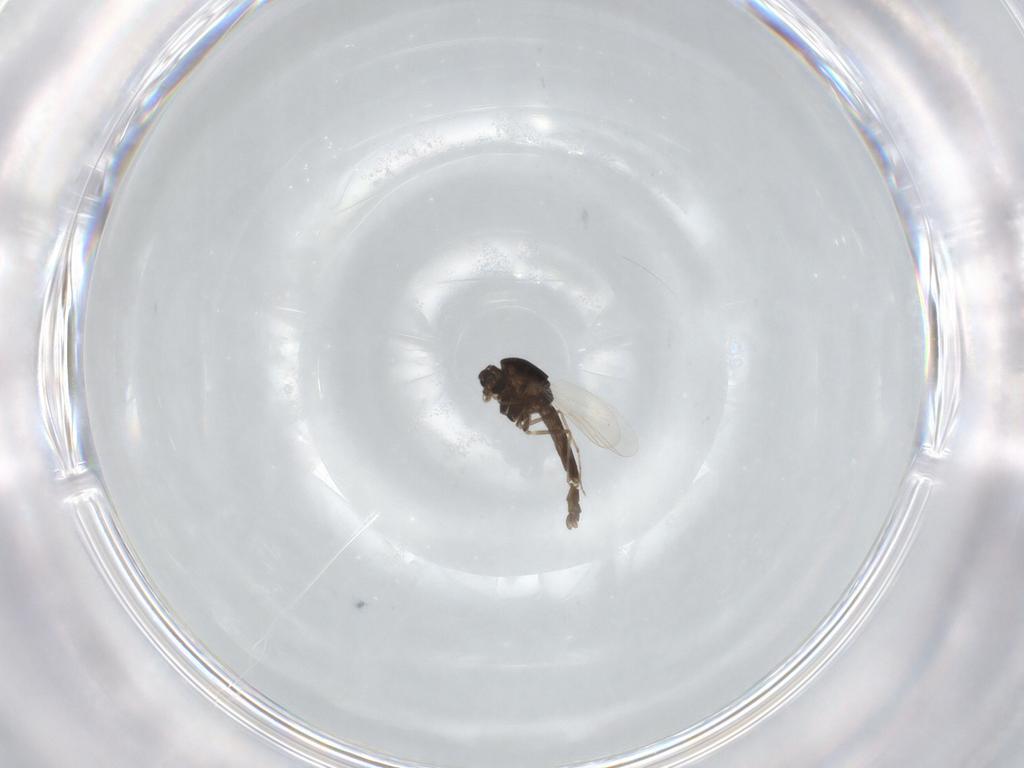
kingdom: Animalia
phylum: Arthropoda
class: Insecta
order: Diptera
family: Chironomidae
